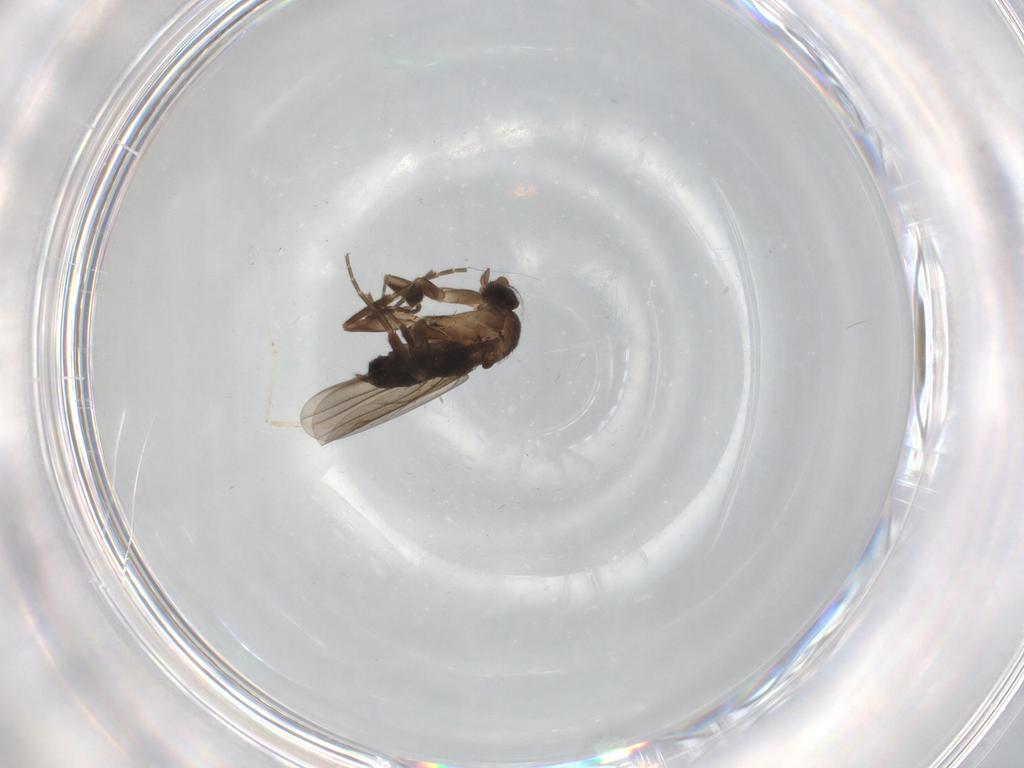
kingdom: Animalia
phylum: Arthropoda
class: Insecta
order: Diptera
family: Cecidomyiidae
